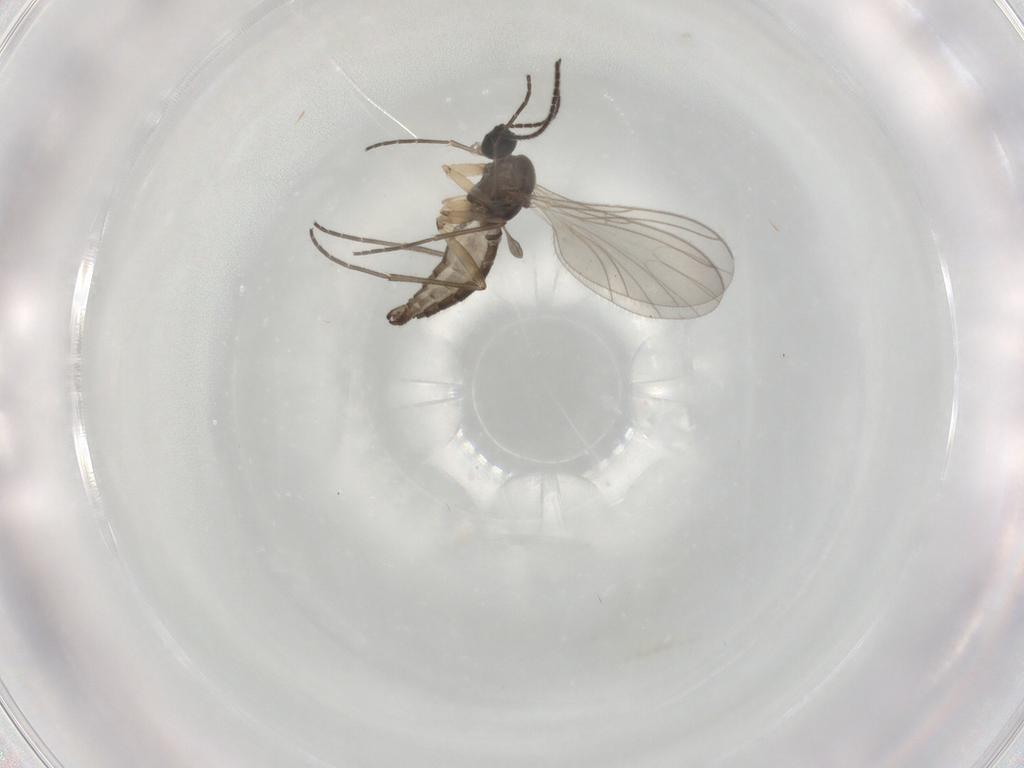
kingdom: Animalia
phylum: Arthropoda
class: Insecta
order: Diptera
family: Sciaridae
